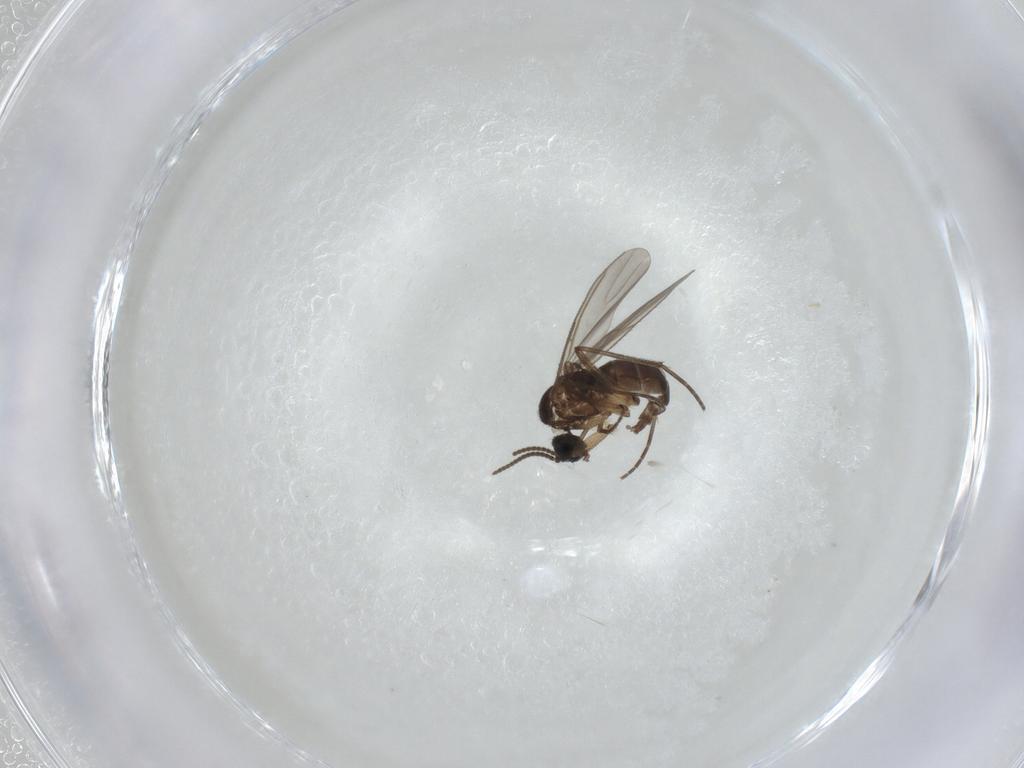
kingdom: Animalia
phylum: Arthropoda
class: Insecta
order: Diptera
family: Sciaridae
